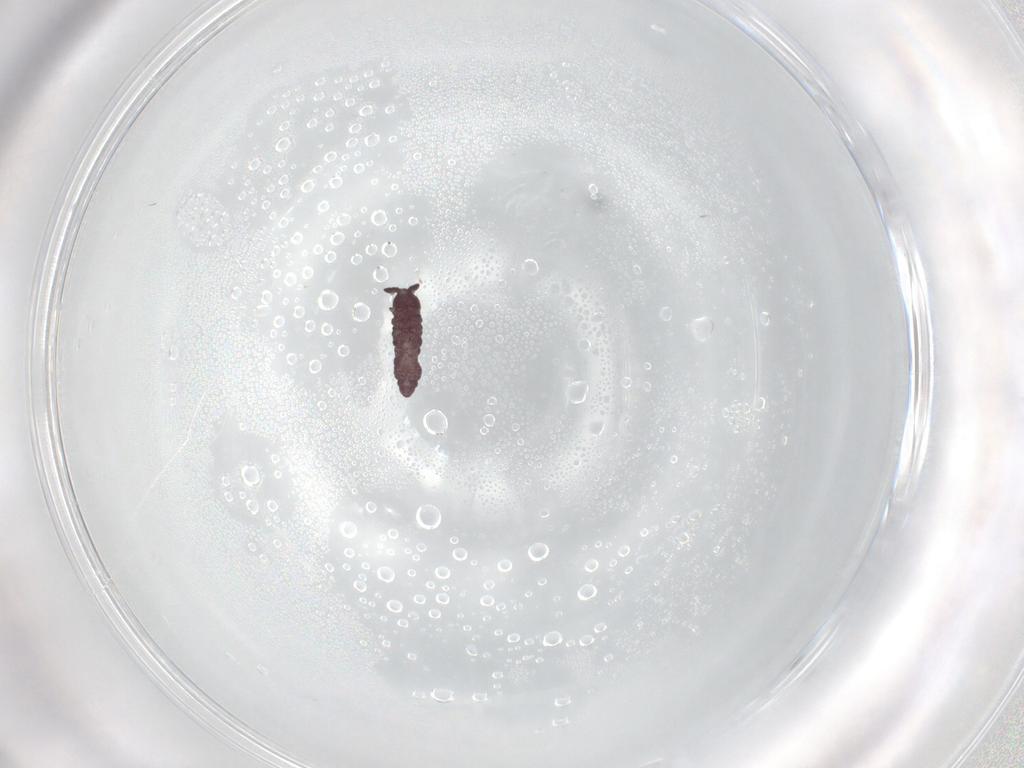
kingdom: Animalia
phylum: Arthropoda
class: Collembola
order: Poduromorpha
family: Hypogastruridae
